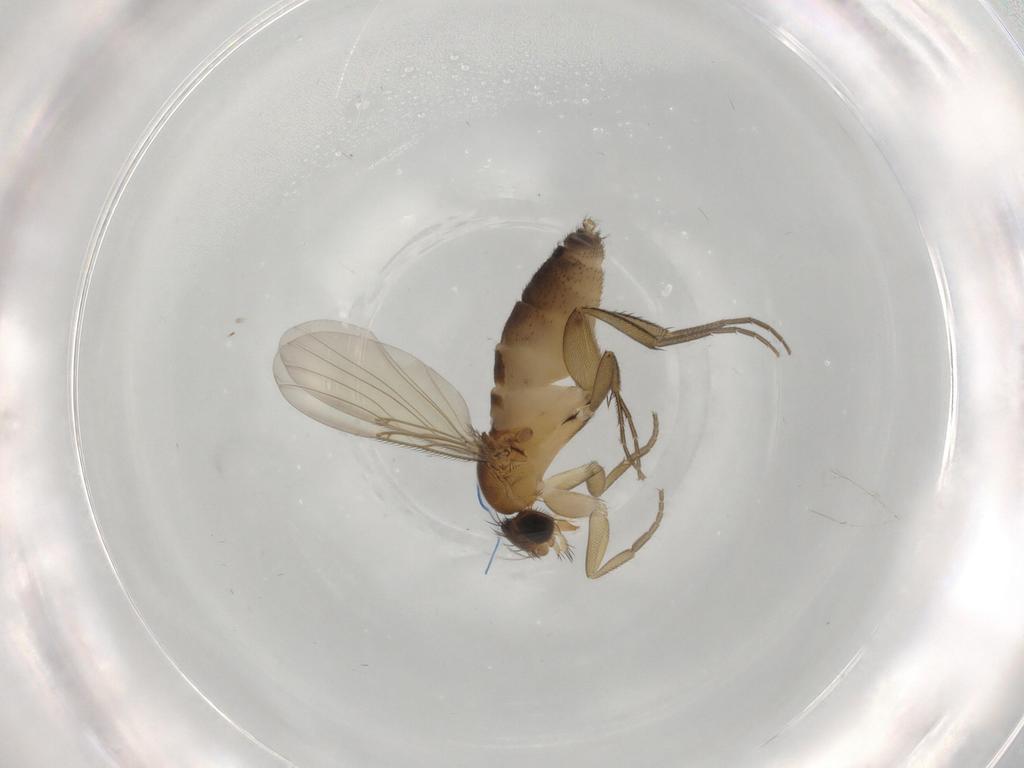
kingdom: Animalia
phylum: Arthropoda
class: Insecta
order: Diptera
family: Phoridae
